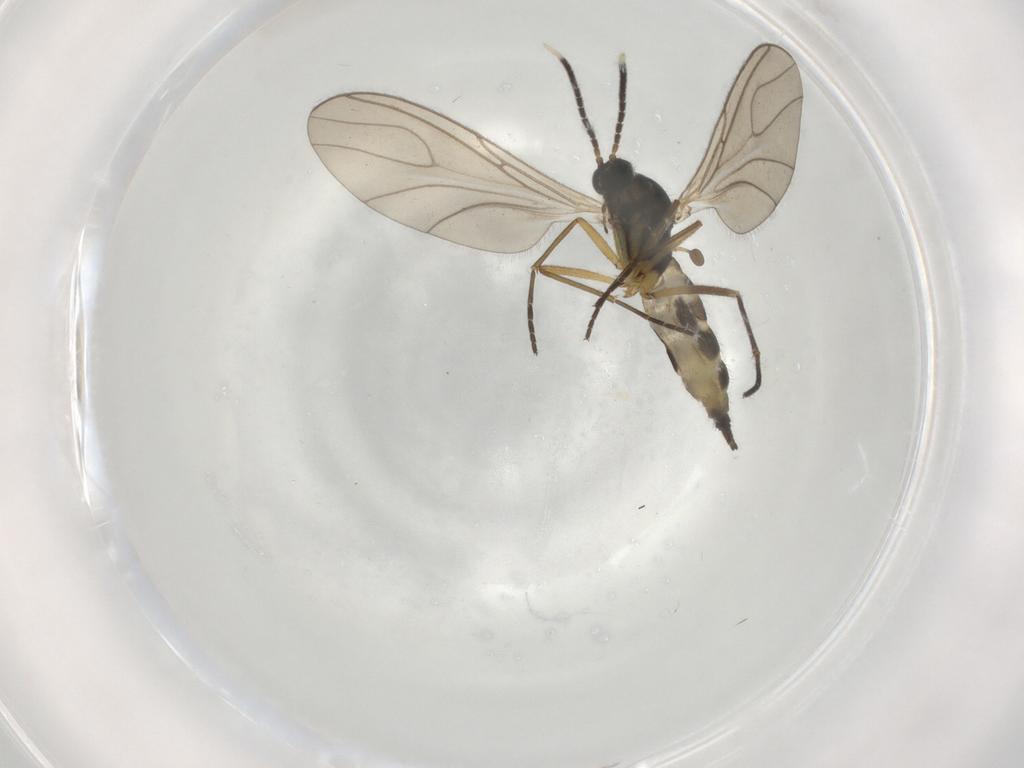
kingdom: Animalia
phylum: Arthropoda
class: Insecta
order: Diptera
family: Sciaridae
